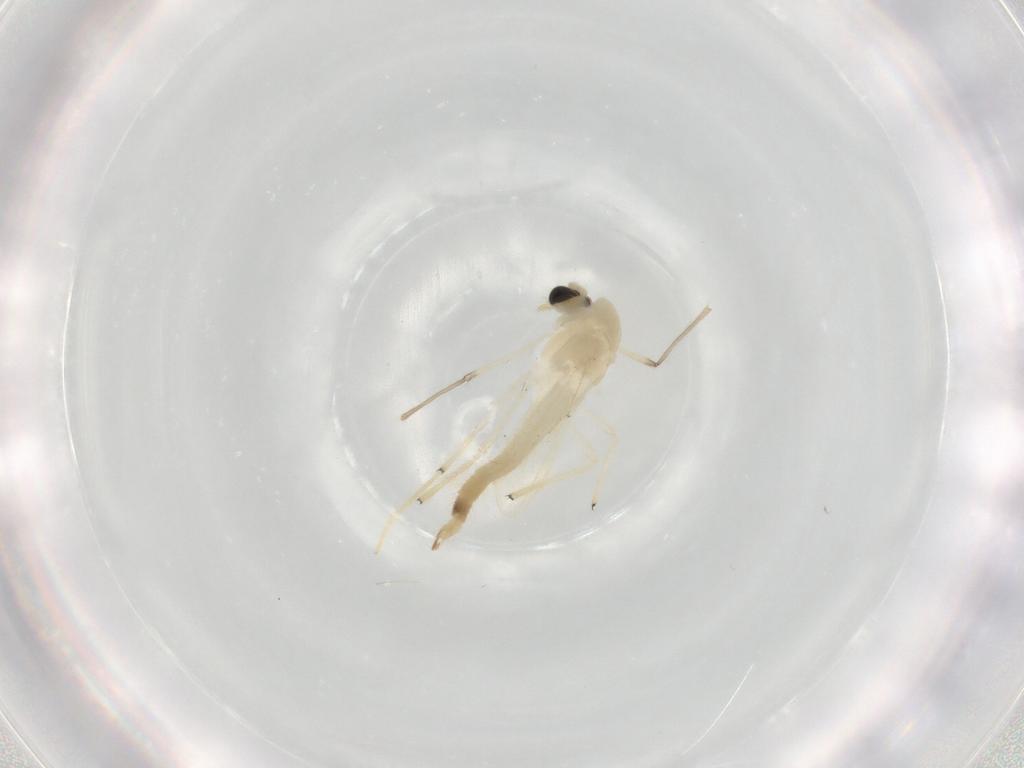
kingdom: Animalia
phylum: Arthropoda
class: Insecta
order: Diptera
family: Chironomidae
